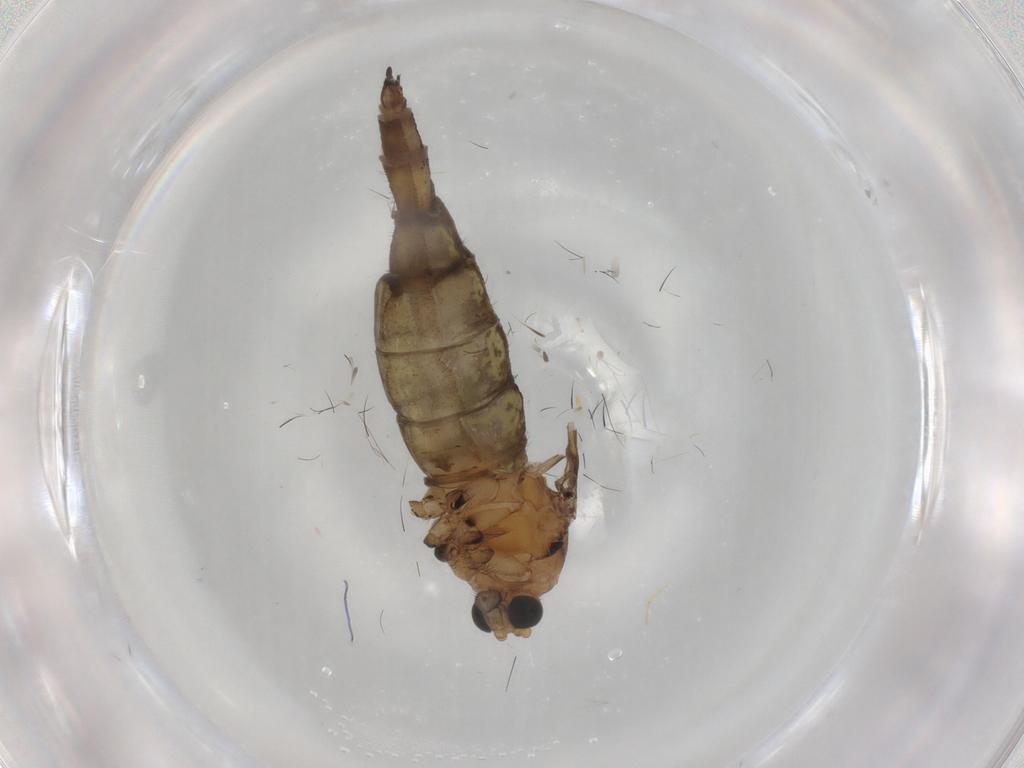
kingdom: Animalia
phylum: Arthropoda
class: Insecta
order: Diptera
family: Sciaridae
